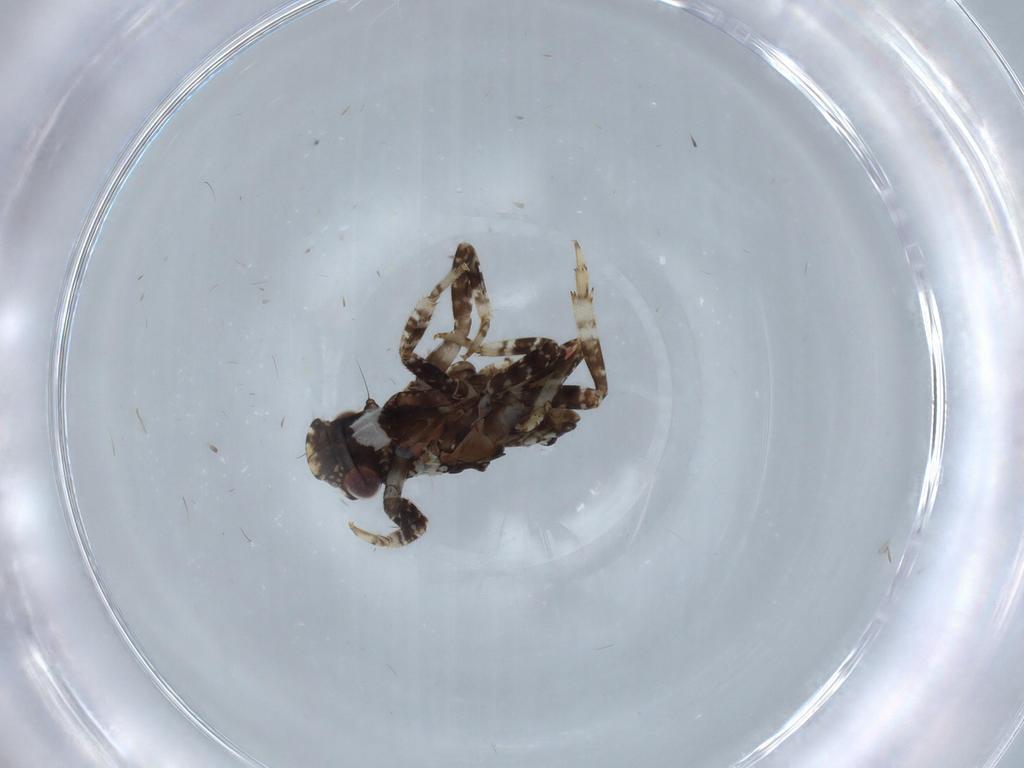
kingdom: Animalia
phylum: Arthropoda
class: Insecta
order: Hemiptera
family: Fulgoridae
